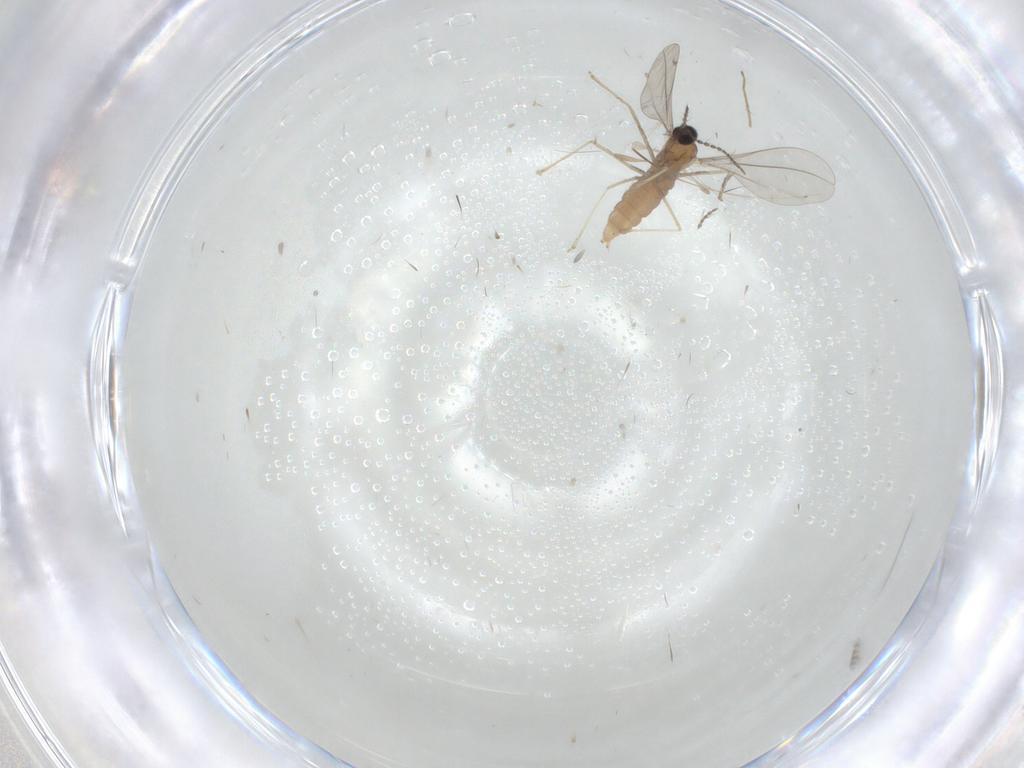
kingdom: Animalia
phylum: Arthropoda
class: Insecta
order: Diptera
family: Cecidomyiidae
